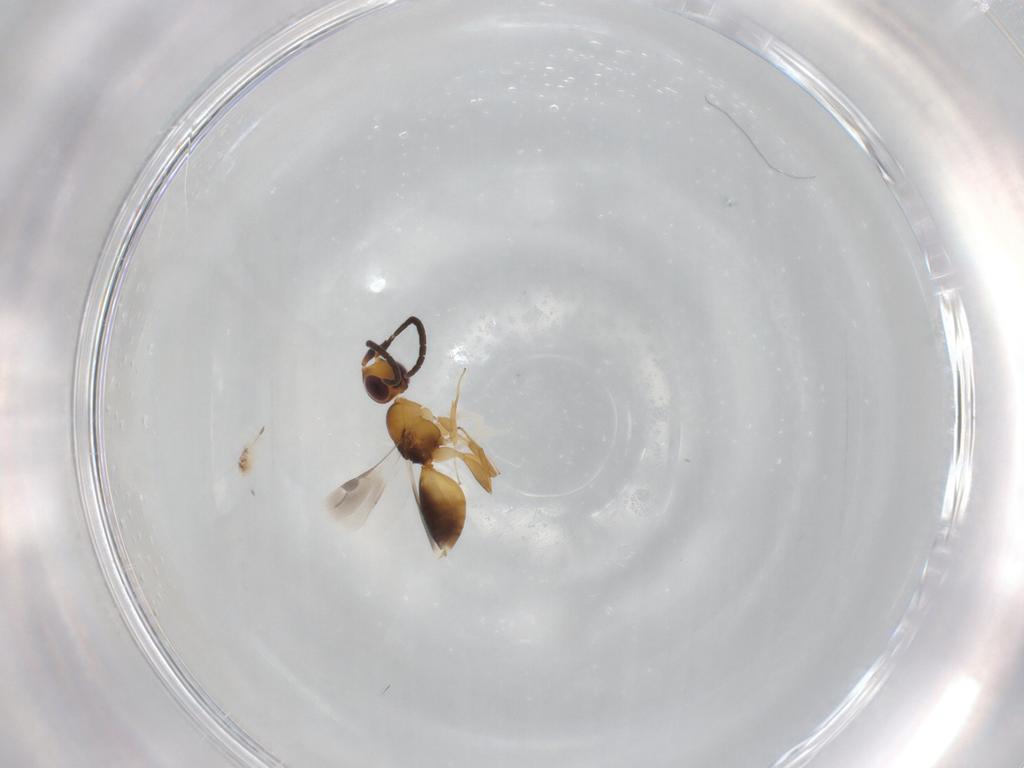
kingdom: Animalia
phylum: Arthropoda
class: Insecta
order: Hymenoptera
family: Megaspilidae
